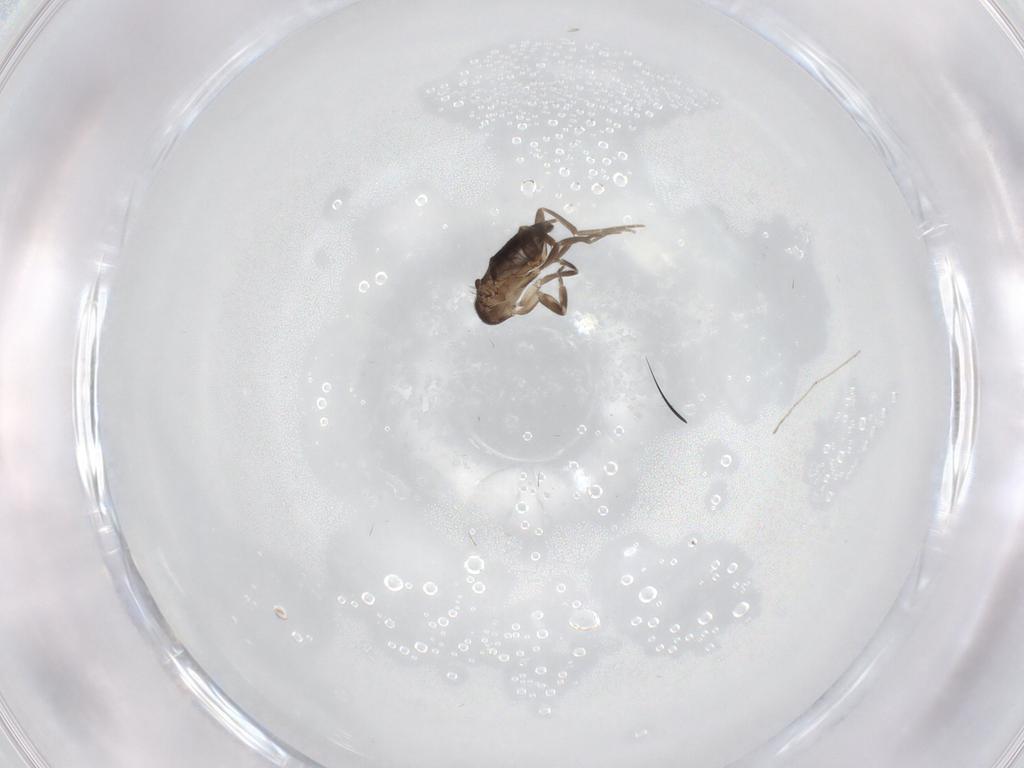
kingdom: Animalia
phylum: Arthropoda
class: Insecta
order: Diptera
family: Cecidomyiidae
